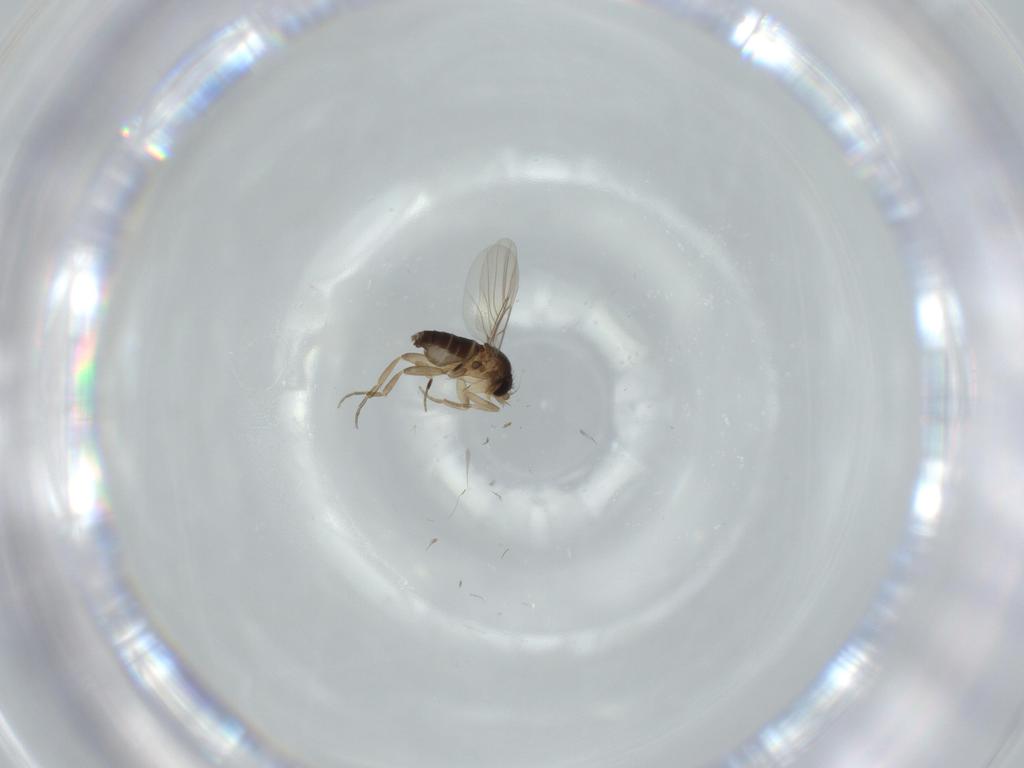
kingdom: Animalia
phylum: Arthropoda
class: Insecta
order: Diptera
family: Phoridae
